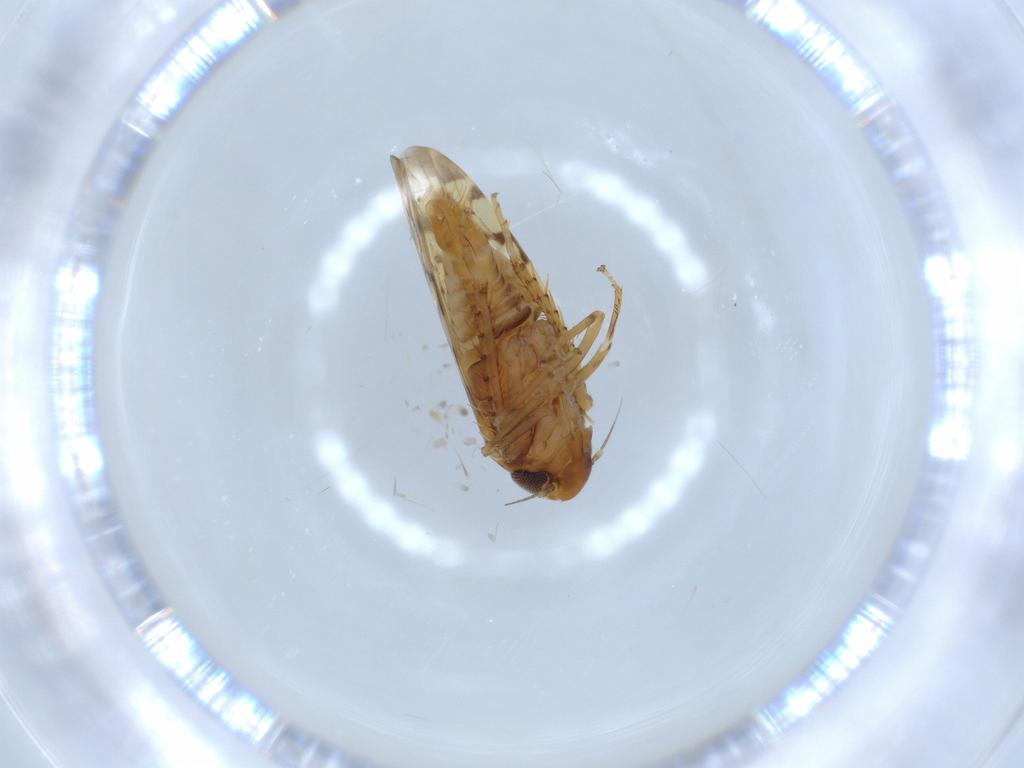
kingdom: Animalia
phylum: Arthropoda
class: Insecta
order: Hemiptera
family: Cicadellidae
